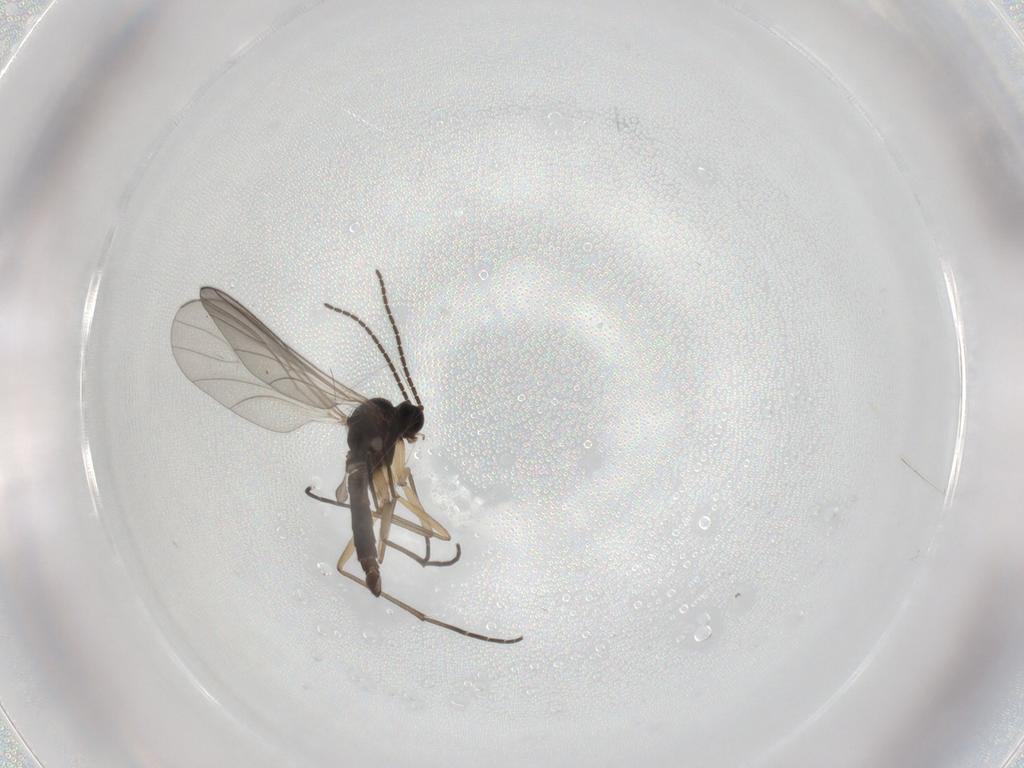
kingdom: Animalia
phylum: Arthropoda
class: Insecta
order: Diptera
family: Sciaridae
